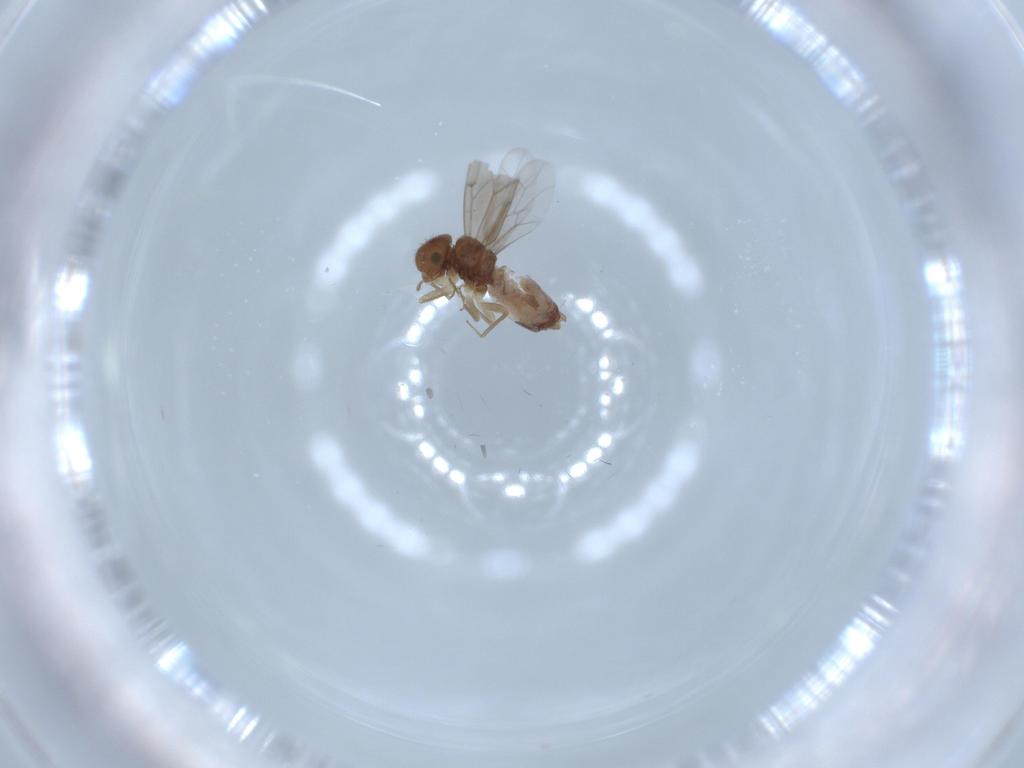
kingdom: Animalia
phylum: Arthropoda
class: Insecta
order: Psocodea
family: Ectopsocidae
